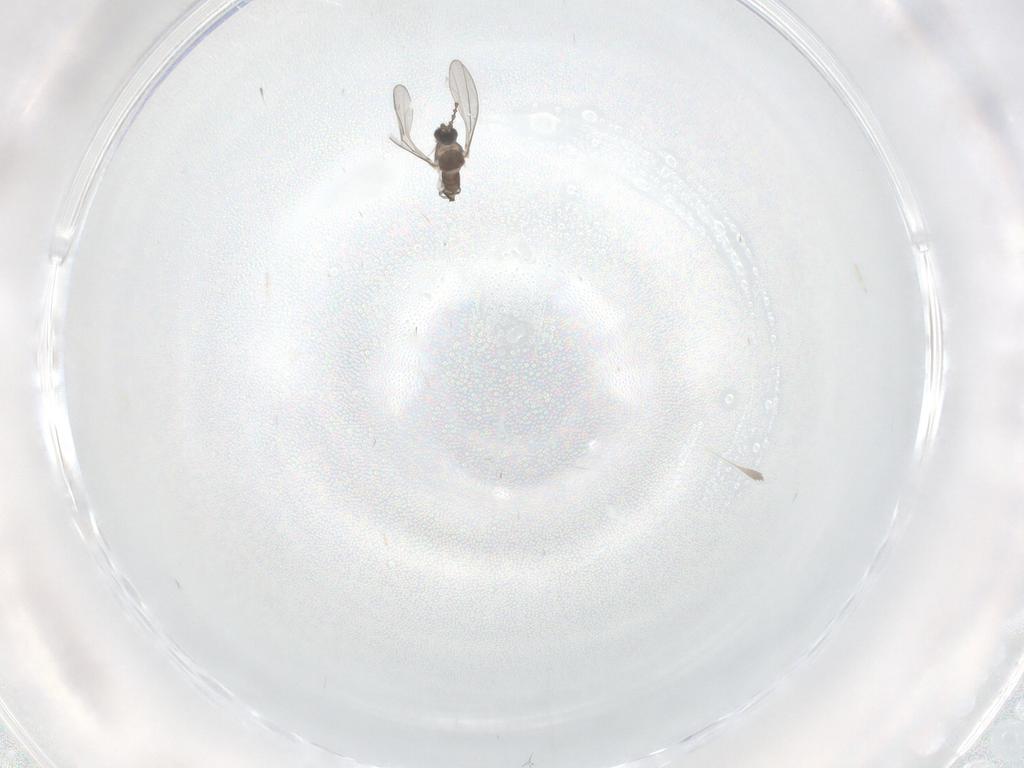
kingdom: Animalia
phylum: Arthropoda
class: Insecta
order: Diptera
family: Cecidomyiidae
